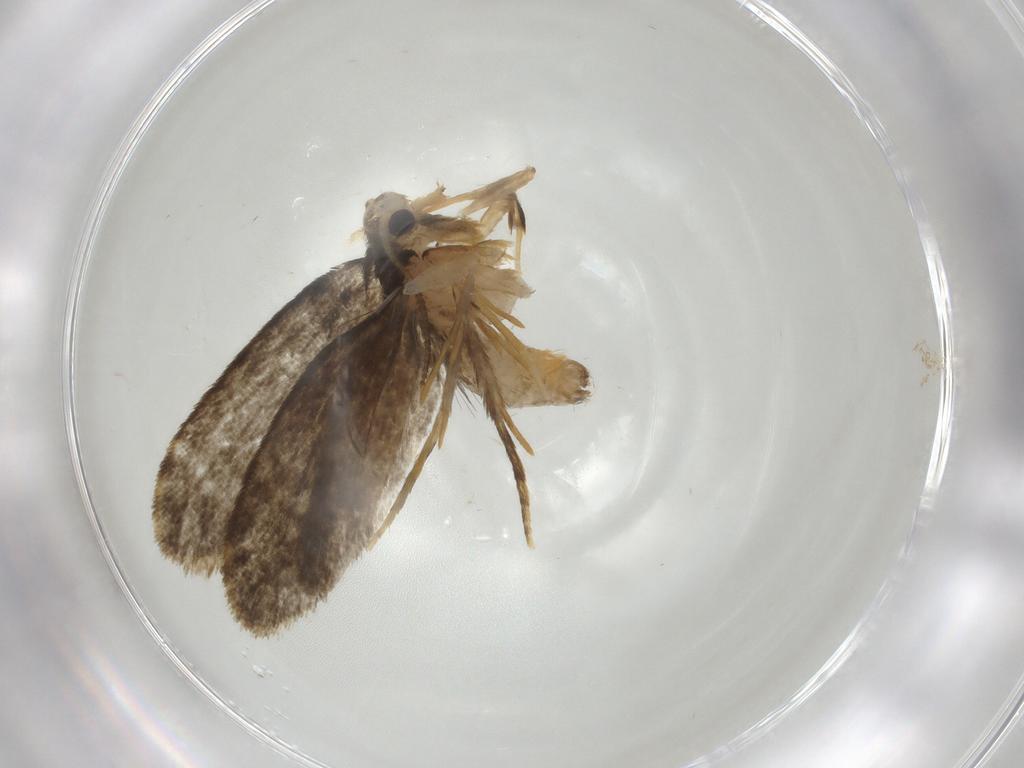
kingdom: Animalia
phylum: Arthropoda
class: Insecta
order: Lepidoptera
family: Psychidae
